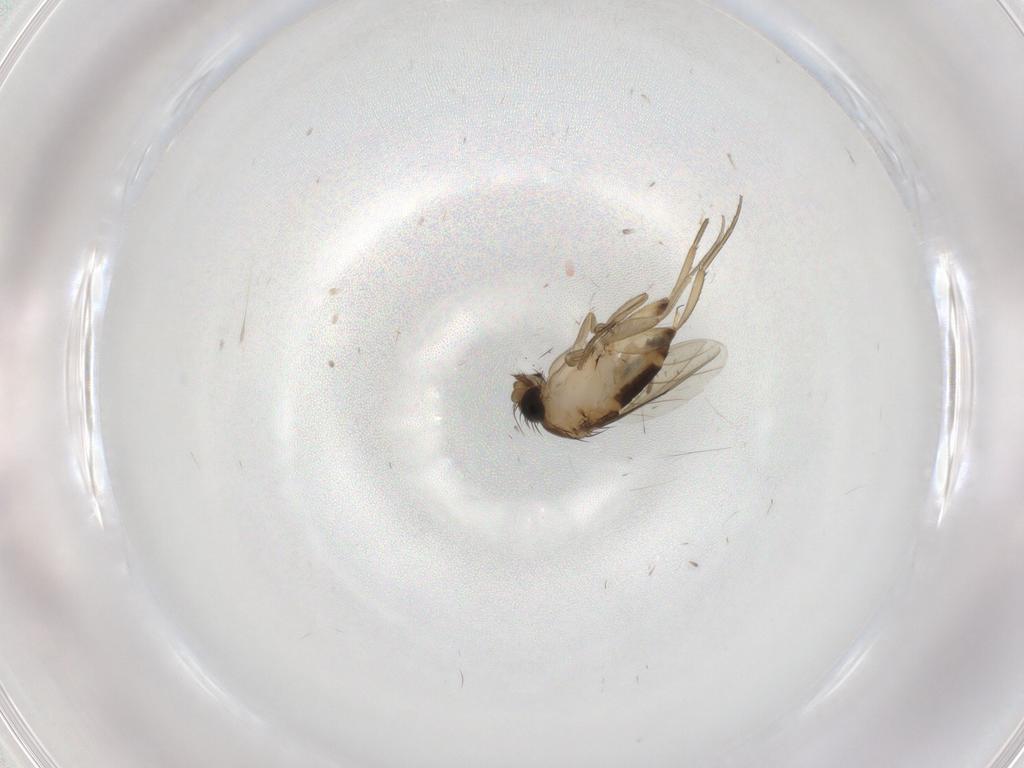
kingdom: Animalia
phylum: Arthropoda
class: Insecta
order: Diptera
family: Phoridae
